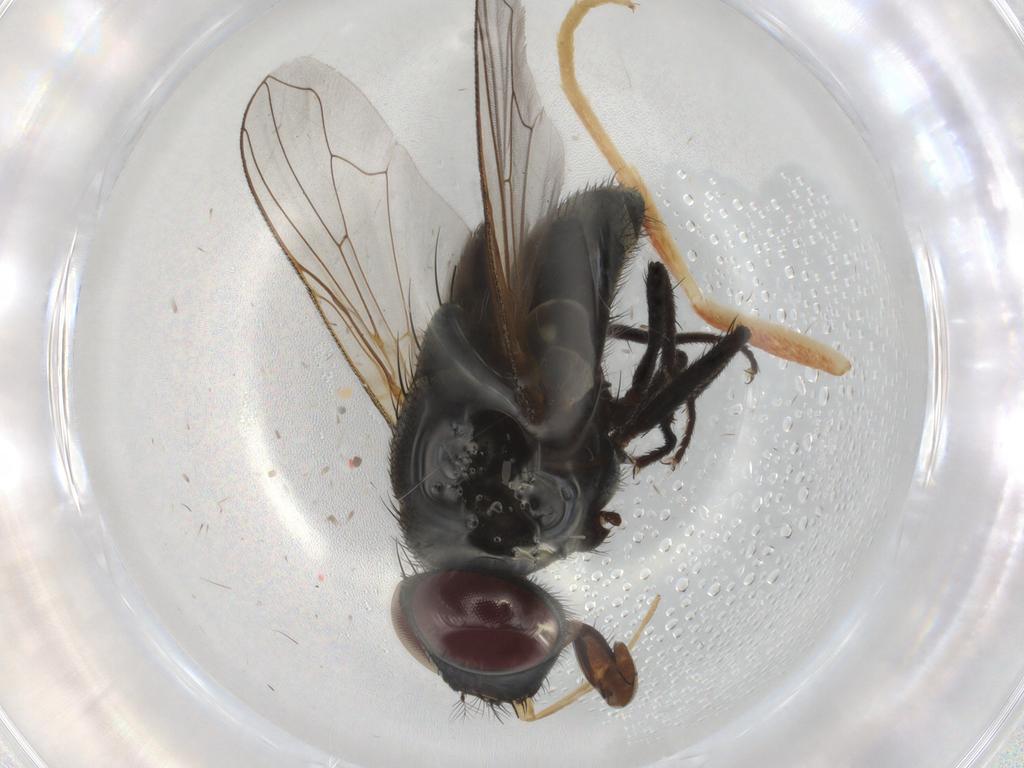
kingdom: Animalia
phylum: Arthropoda
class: Insecta
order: Diptera
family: Muscidae
